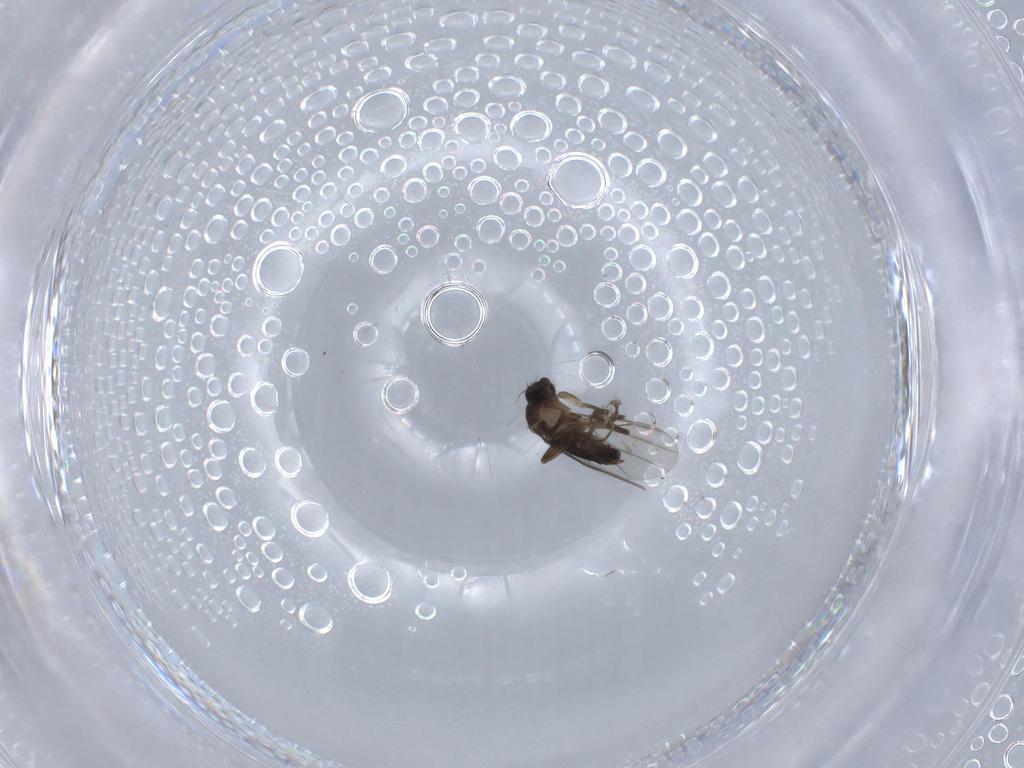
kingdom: Animalia
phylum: Arthropoda
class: Insecta
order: Diptera
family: Phoridae
